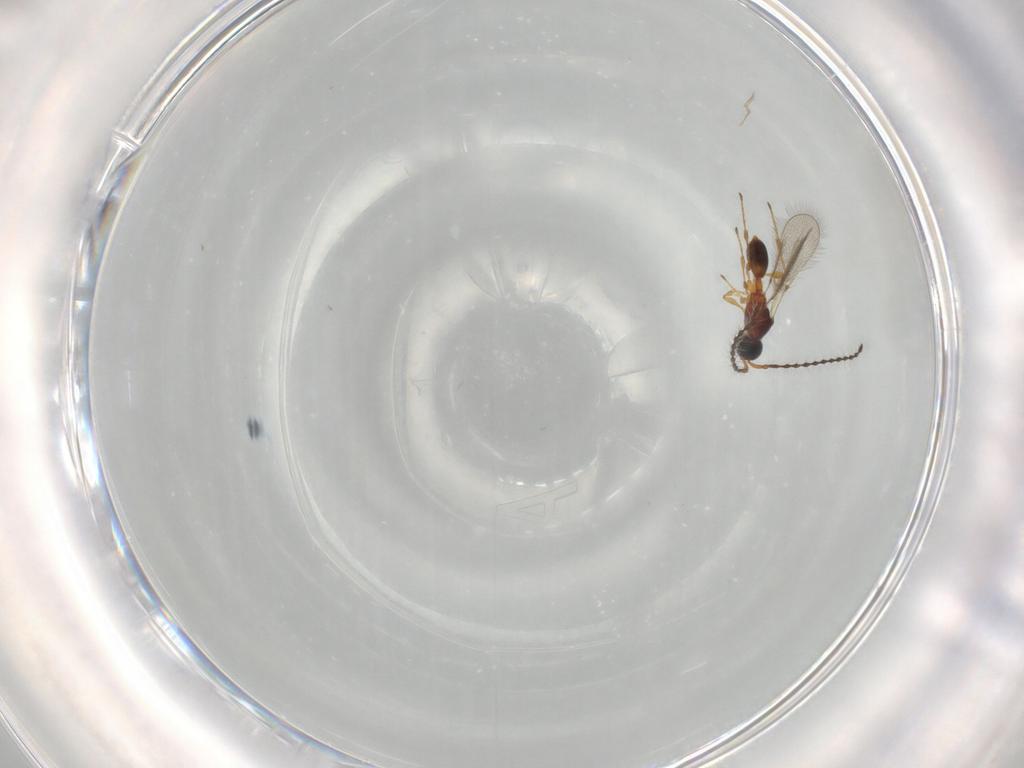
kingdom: Animalia
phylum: Arthropoda
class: Insecta
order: Hymenoptera
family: Diapriidae
